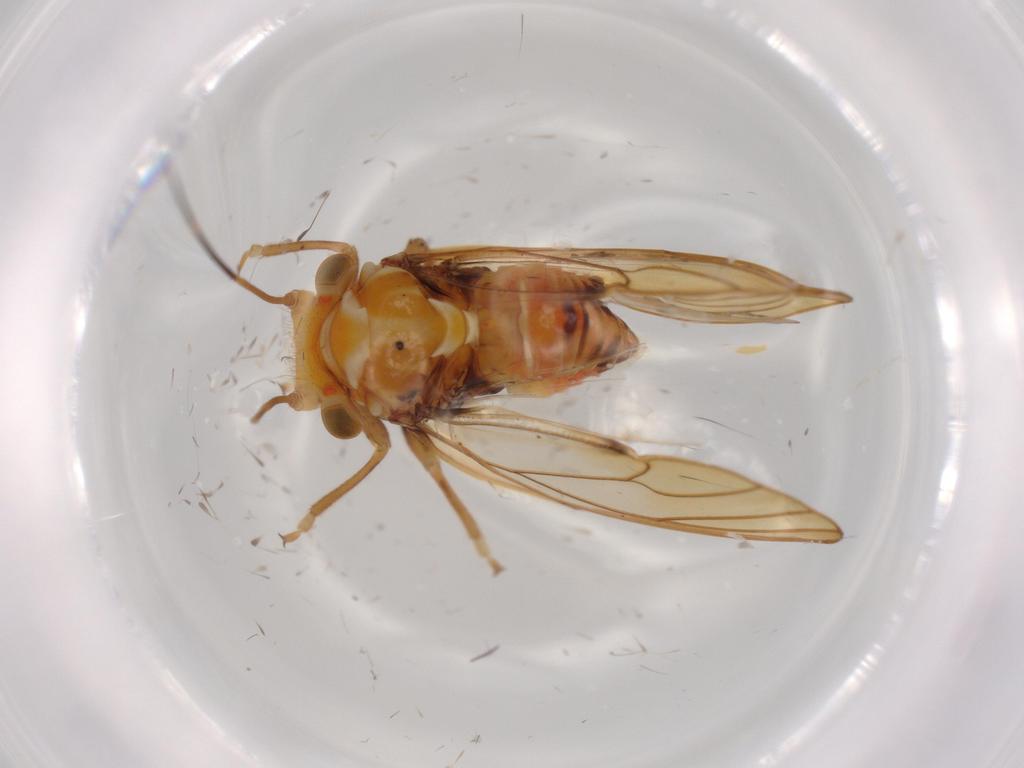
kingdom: Animalia
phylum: Arthropoda
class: Insecta
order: Hemiptera
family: Psyllidae
